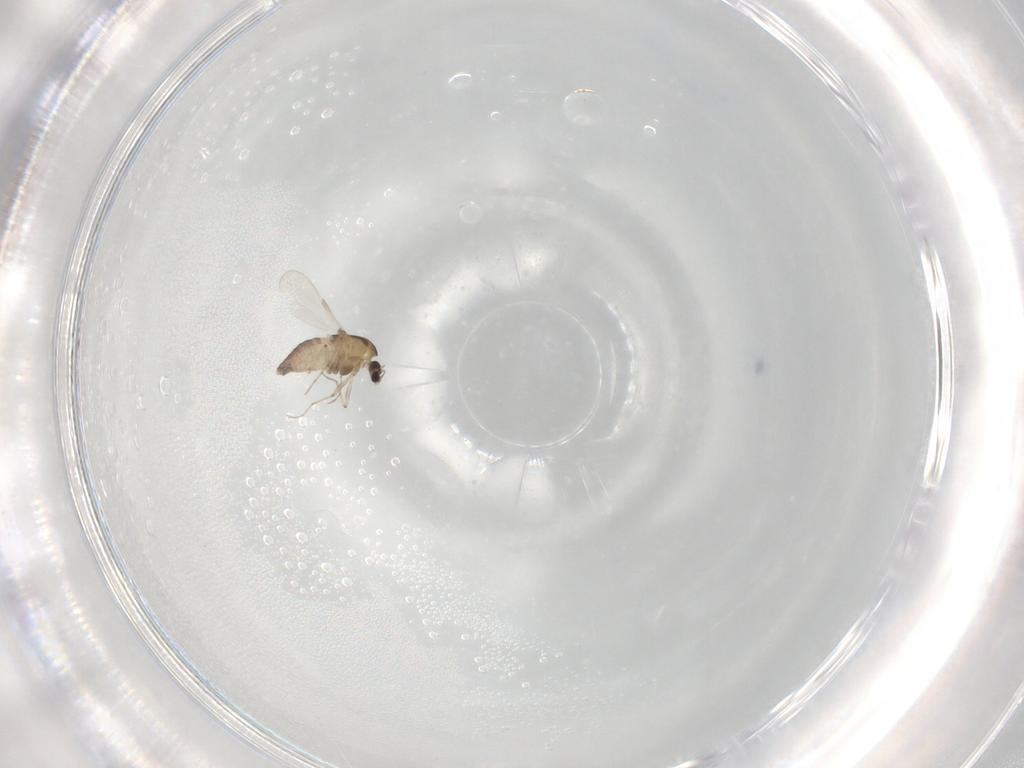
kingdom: Animalia
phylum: Arthropoda
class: Insecta
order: Diptera
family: Chironomidae
